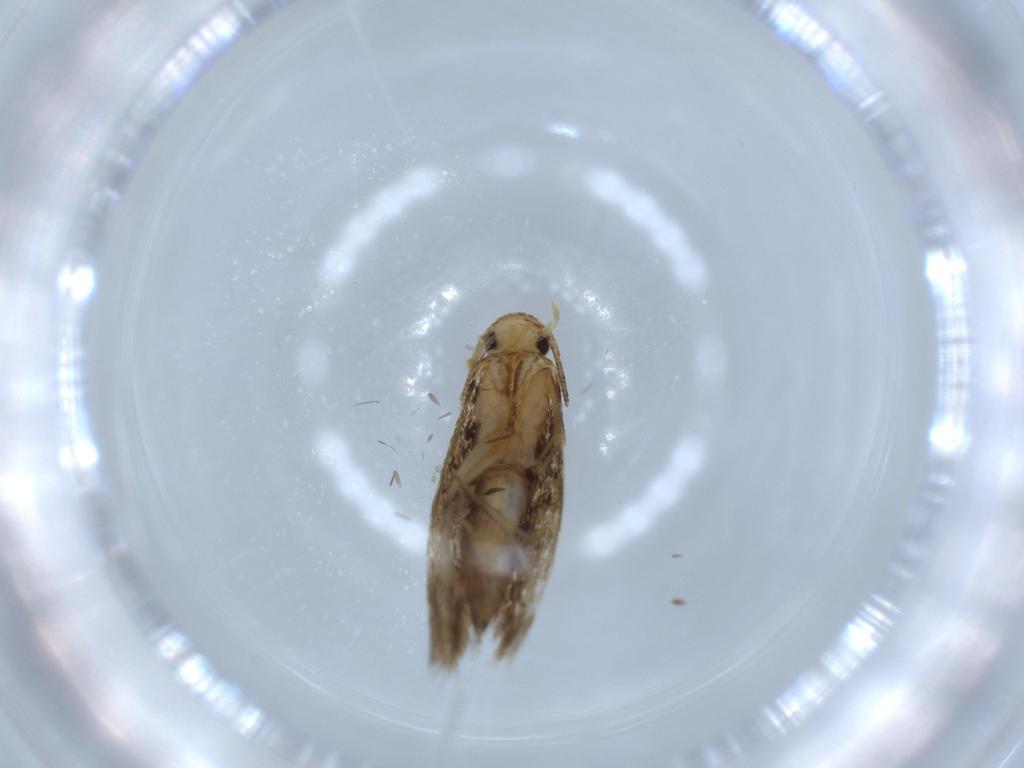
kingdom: Animalia
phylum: Arthropoda
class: Insecta
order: Lepidoptera
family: Tineidae
